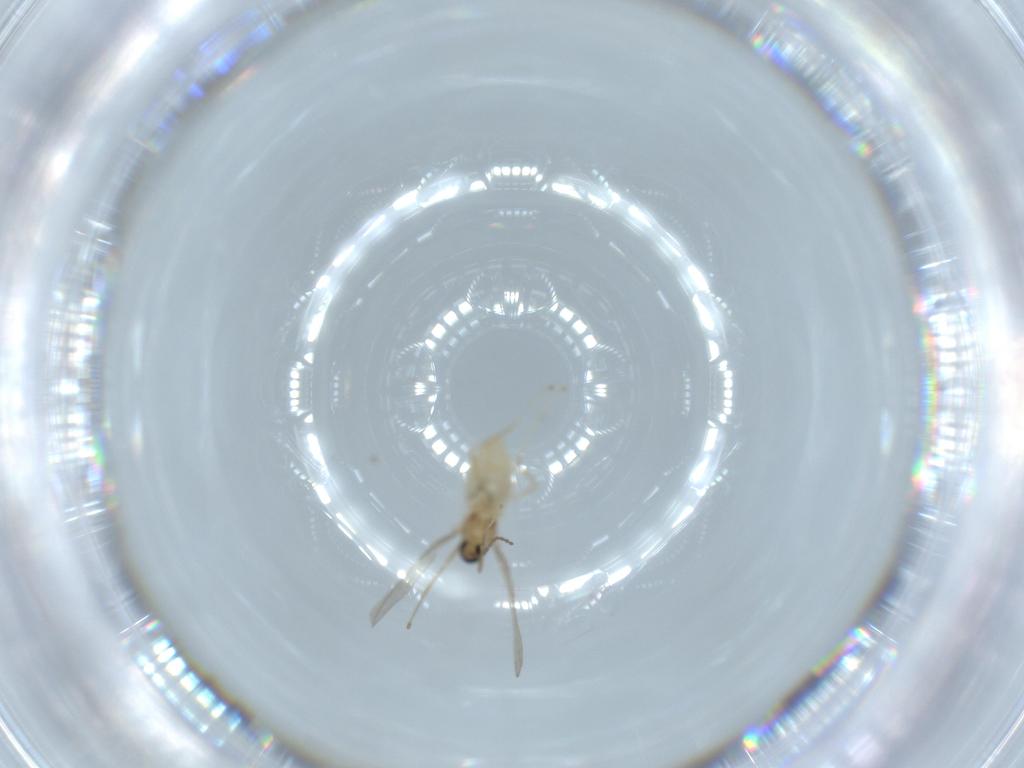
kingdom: Animalia
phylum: Arthropoda
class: Insecta
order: Diptera
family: Cecidomyiidae
